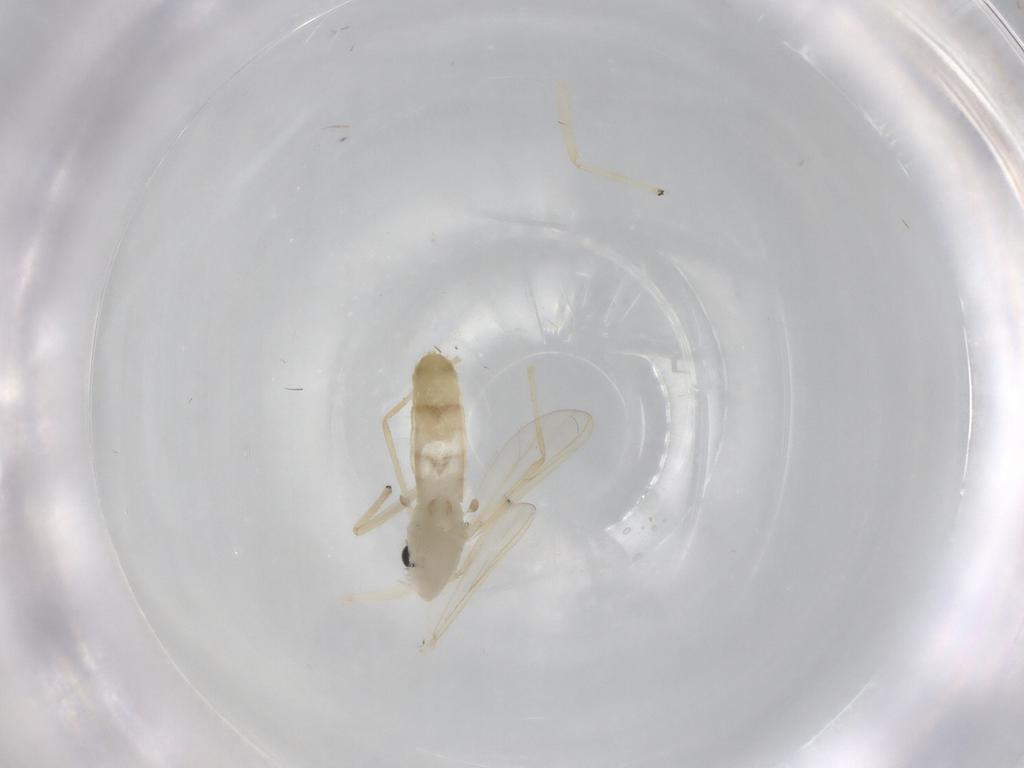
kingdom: Animalia
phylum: Arthropoda
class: Insecta
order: Diptera
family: Chironomidae
